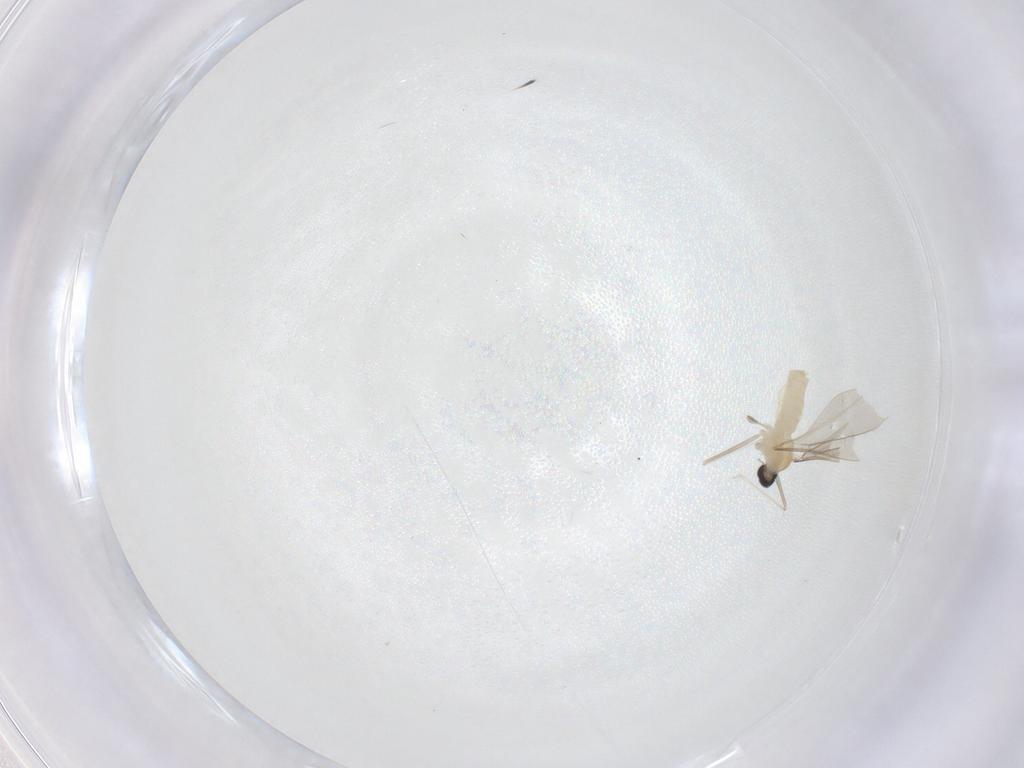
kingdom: Animalia
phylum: Arthropoda
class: Insecta
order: Diptera
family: Cecidomyiidae
